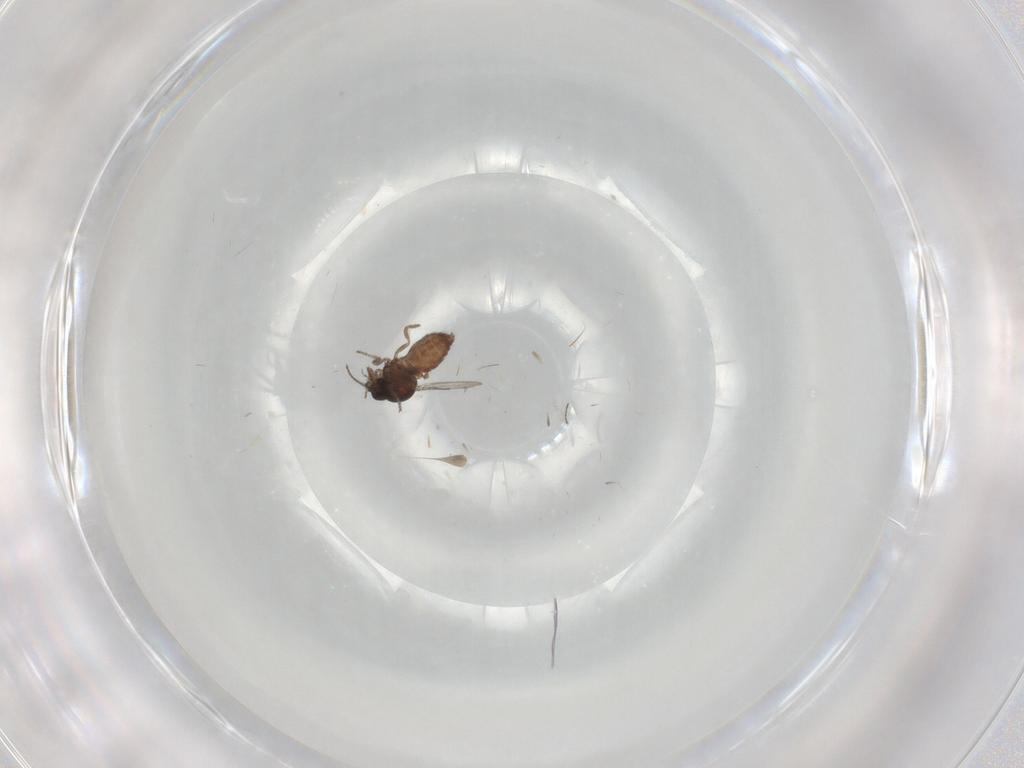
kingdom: Animalia
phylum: Arthropoda
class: Insecta
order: Diptera
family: Ceratopogonidae
